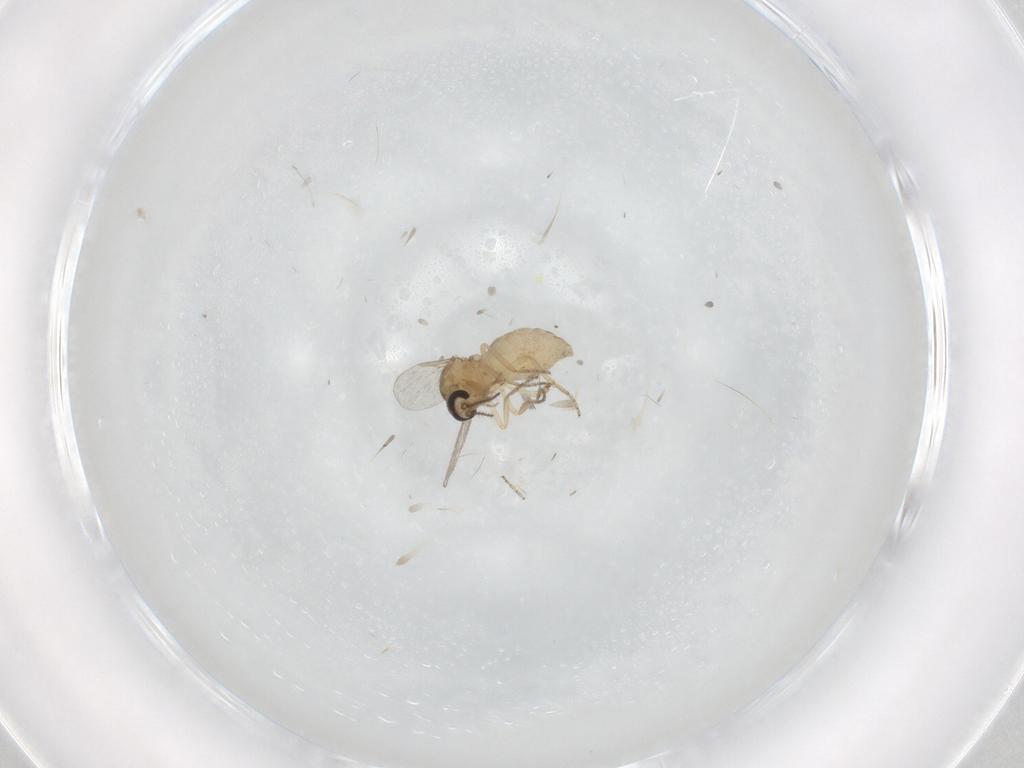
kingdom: Animalia
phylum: Arthropoda
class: Insecta
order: Diptera
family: Ceratopogonidae
